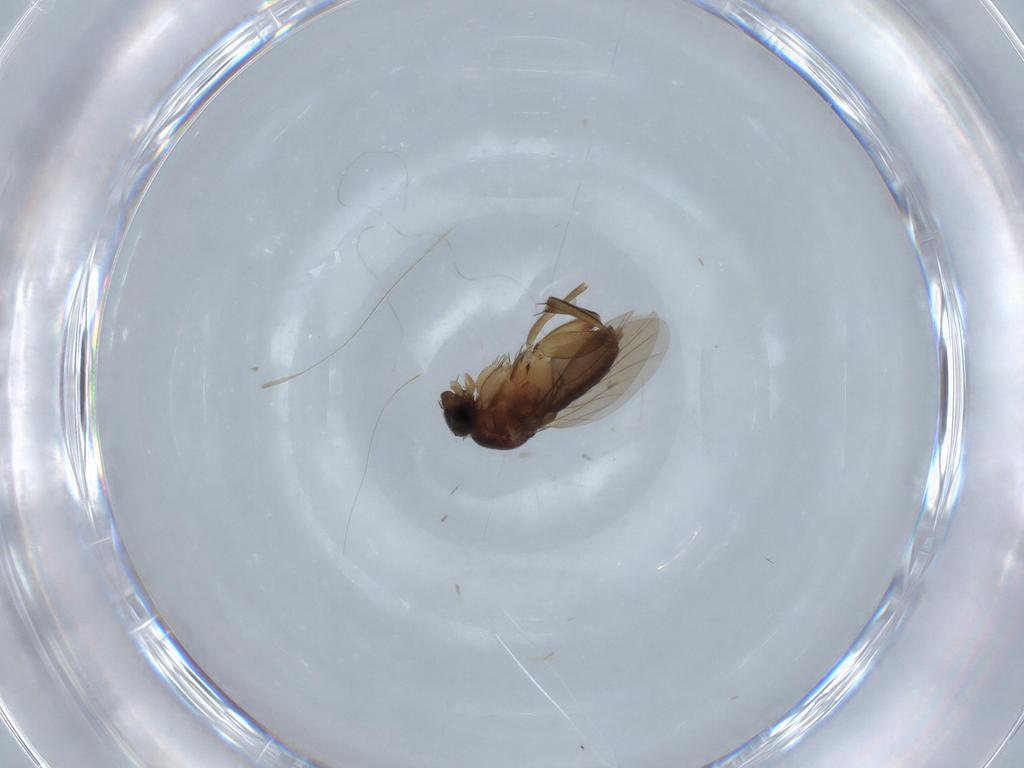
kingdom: Animalia
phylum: Arthropoda
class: Insecta
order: Diptera
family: Phoridae
